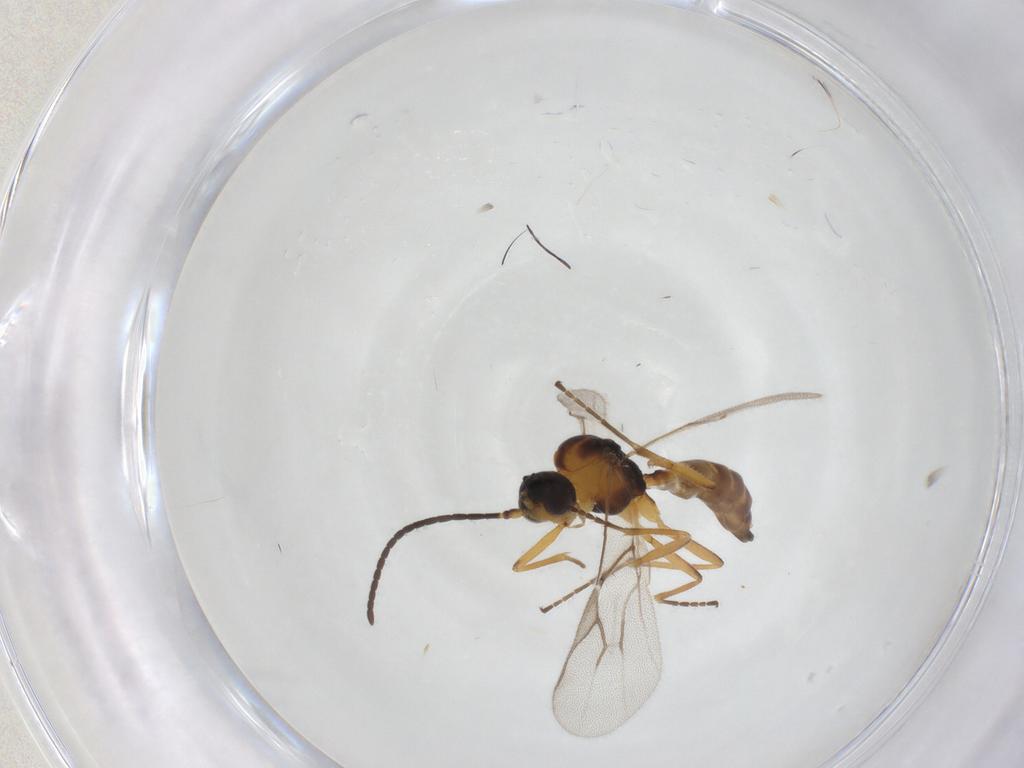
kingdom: Animalia
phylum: Arthropoda
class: Insecta
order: Hymenoptera
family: Braconidae
